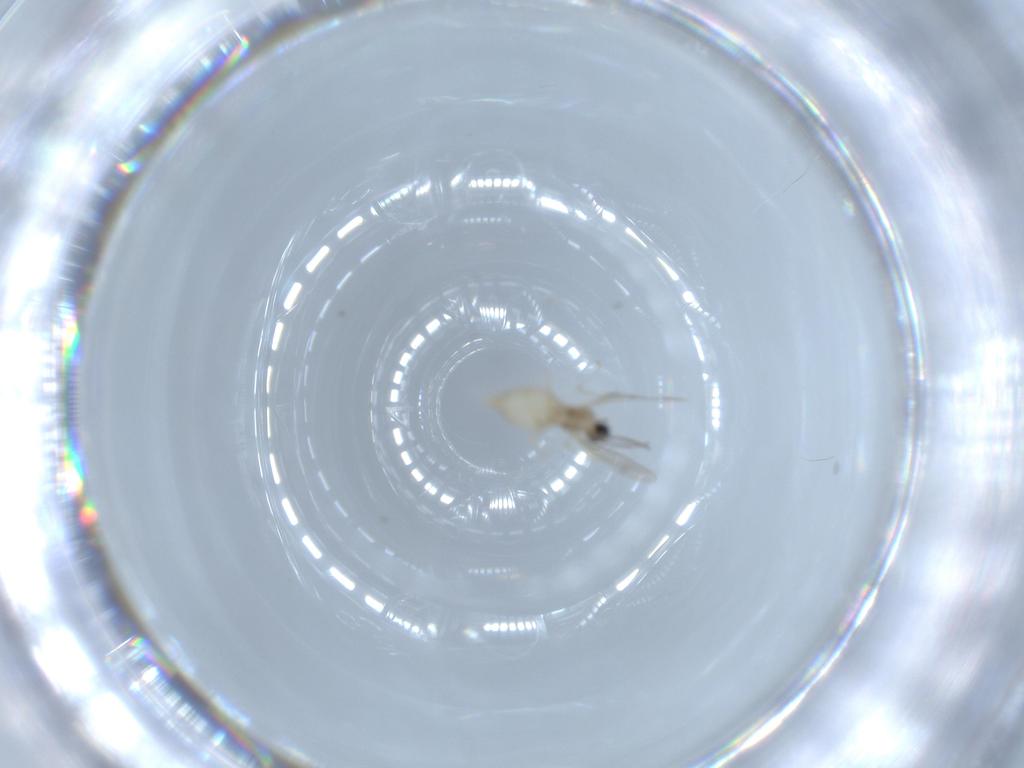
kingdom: Animalia
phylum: Arthropoda
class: Insecta
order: Diptera
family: Cecidomyiidae
